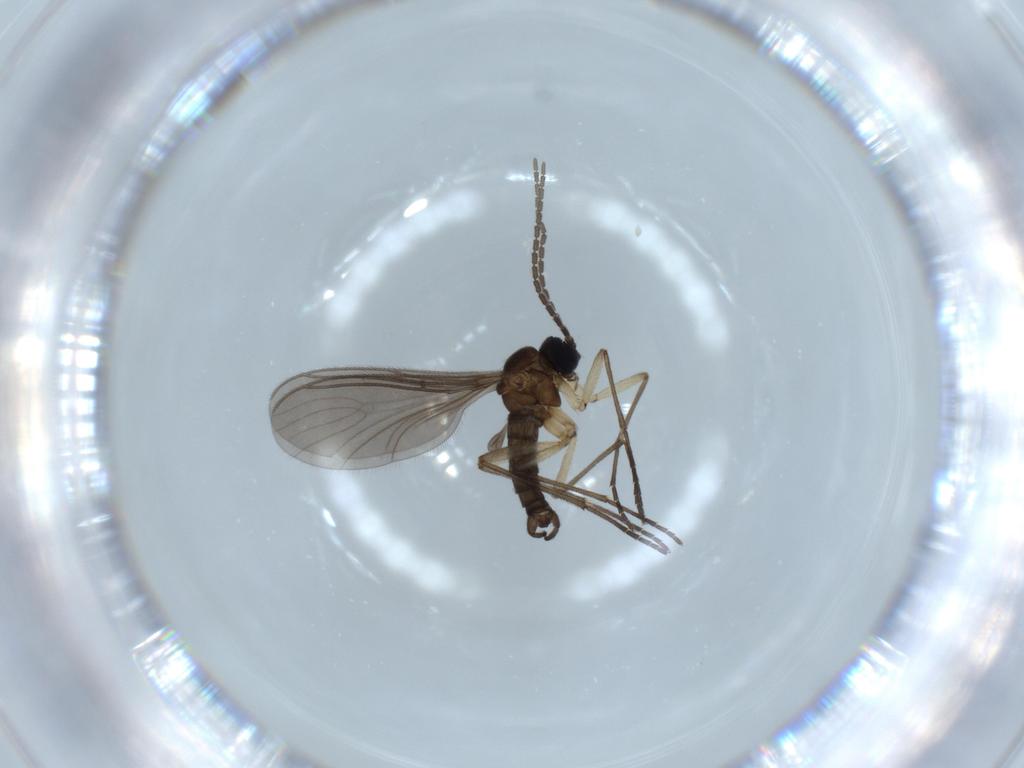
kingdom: Animalia
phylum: Arthropoda
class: Insecta
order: Diptera
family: Sciaridae
